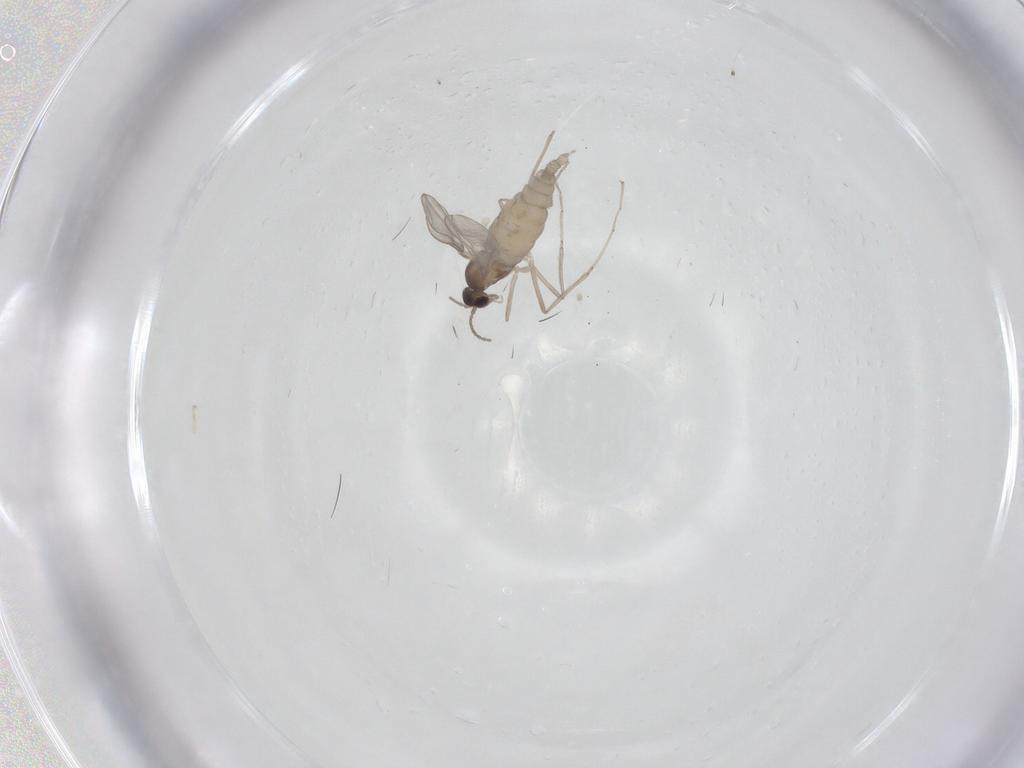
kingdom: Animalia
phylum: Arthropoda
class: Insecta
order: Diptera
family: Cecidomyiidae
